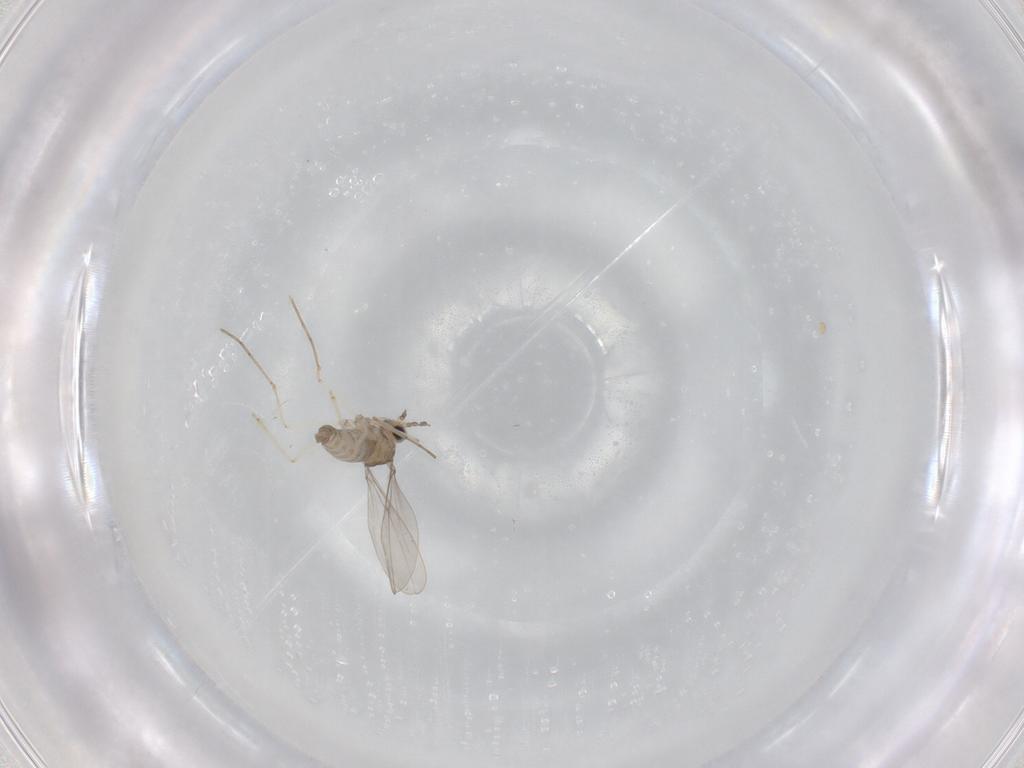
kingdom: Animalia
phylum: Arthropoda
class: Insecta
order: Diptera
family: Cecidomyiidae
